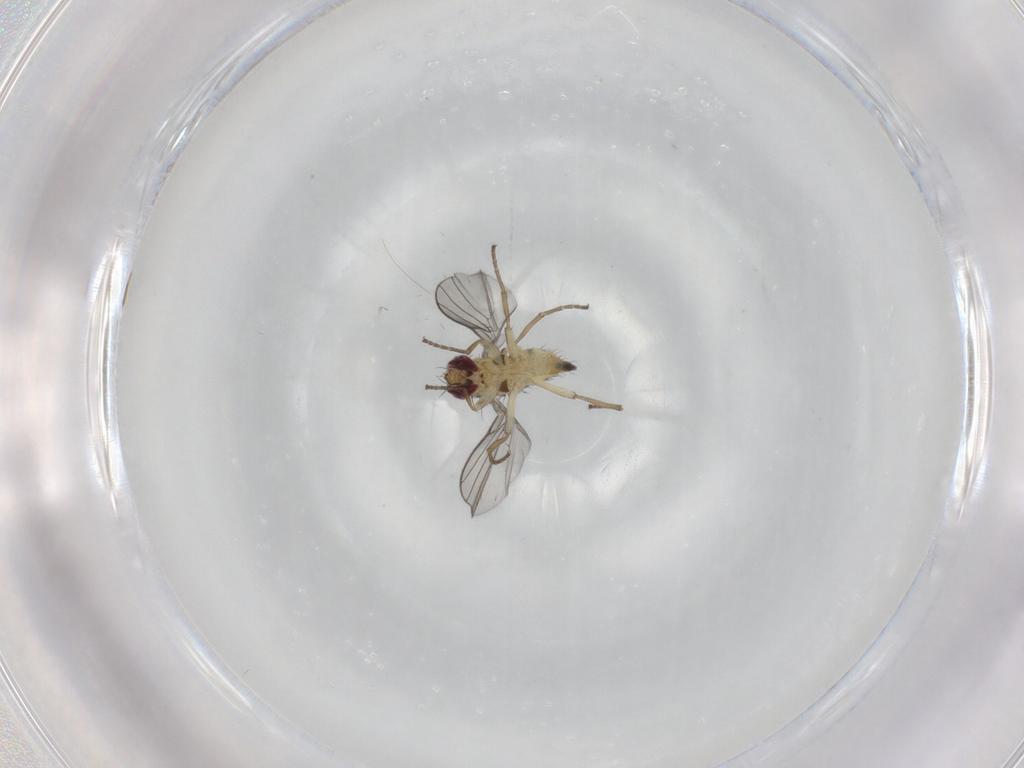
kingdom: Animalia
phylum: Arthropoda
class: Insecta
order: Diptera
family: Agromyzidae
